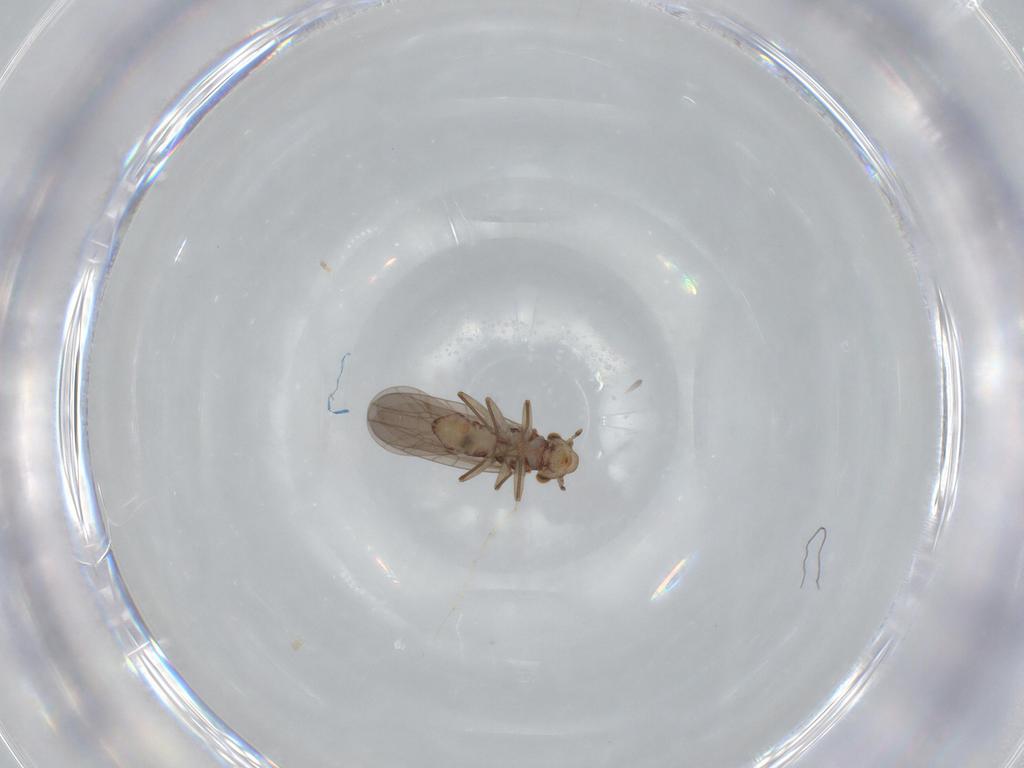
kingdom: Animalia
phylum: Arthropoda
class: Insecta
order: Psocodea
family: Lepidopsocidae
